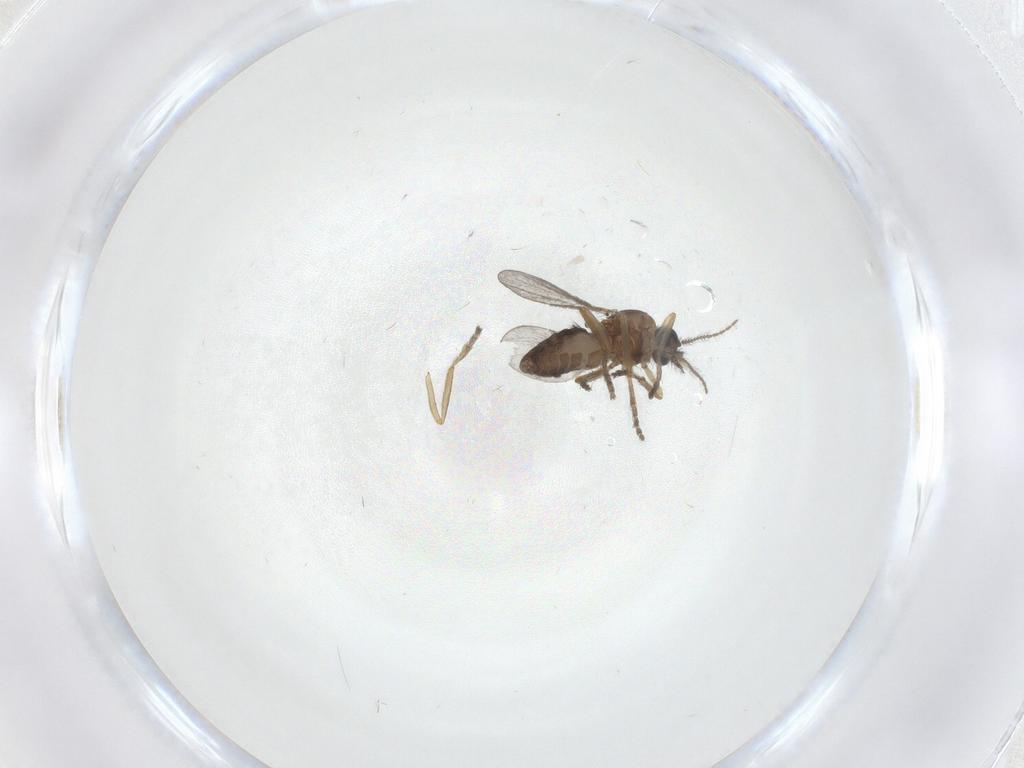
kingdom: Animalia
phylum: Arthropoda
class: Insecta
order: Diptera
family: Ceratopogonidae
